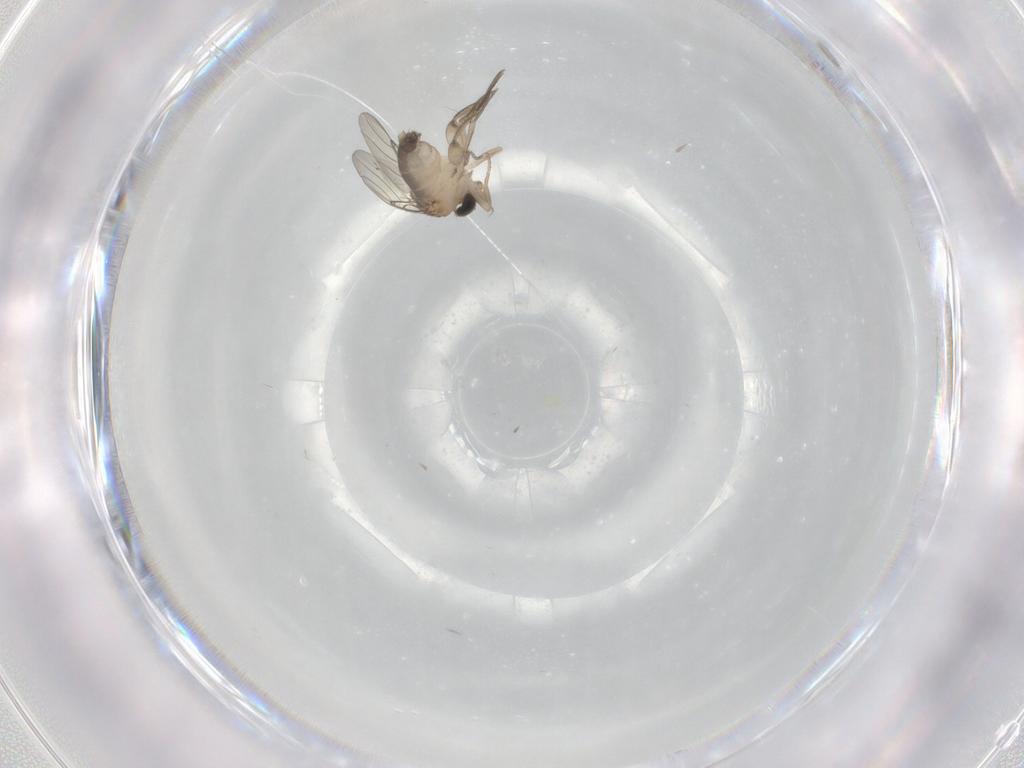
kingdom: Animalia
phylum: Arthropoda
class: Insecta
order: Diptera
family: Phoridae
